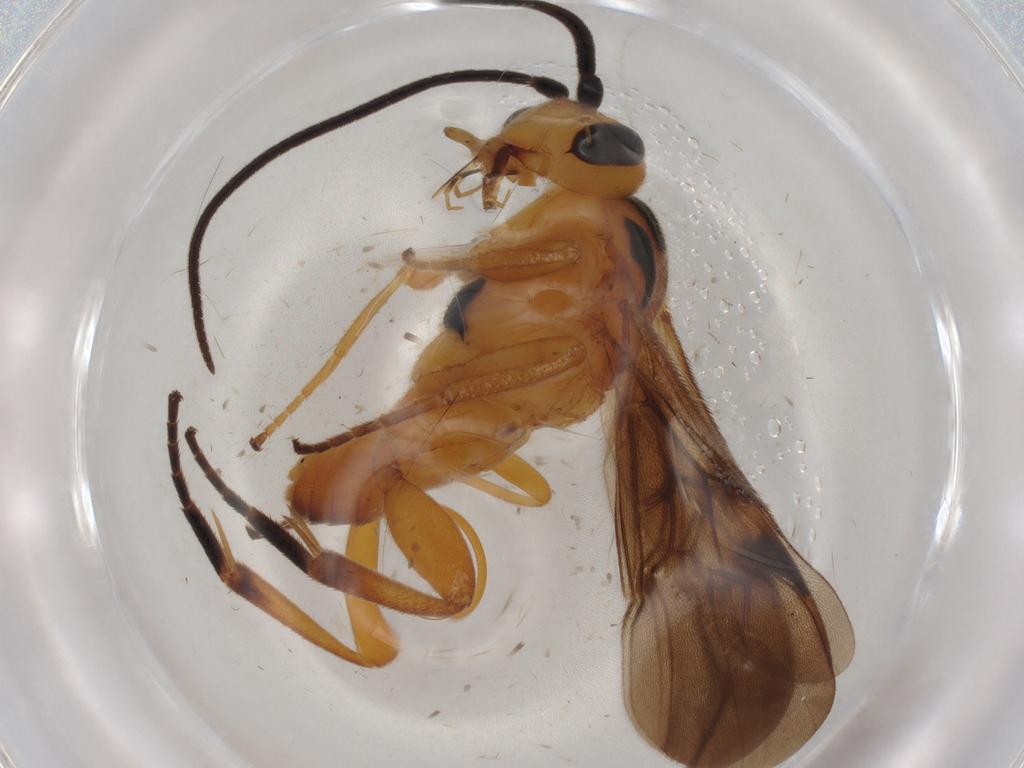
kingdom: Animalia
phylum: Arthropoda
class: Insecta
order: Hymenoptera
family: Braconidae
